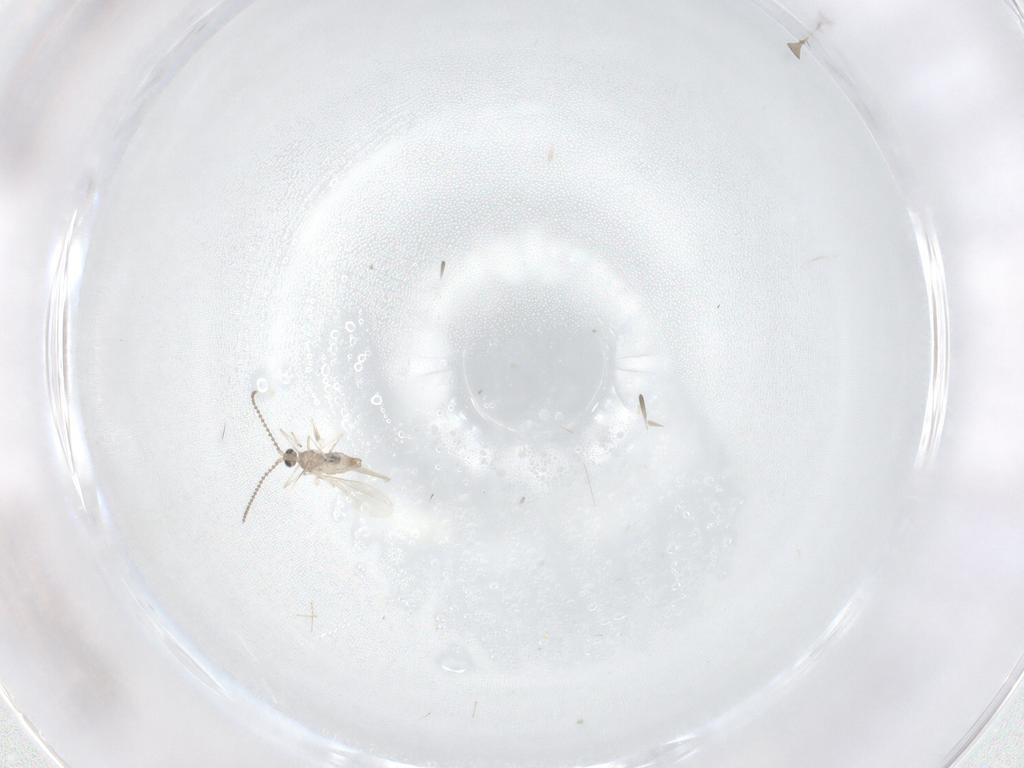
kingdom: Animalia
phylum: Arthropoda
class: Insecta
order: Diptera
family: Cecidomyiidae
